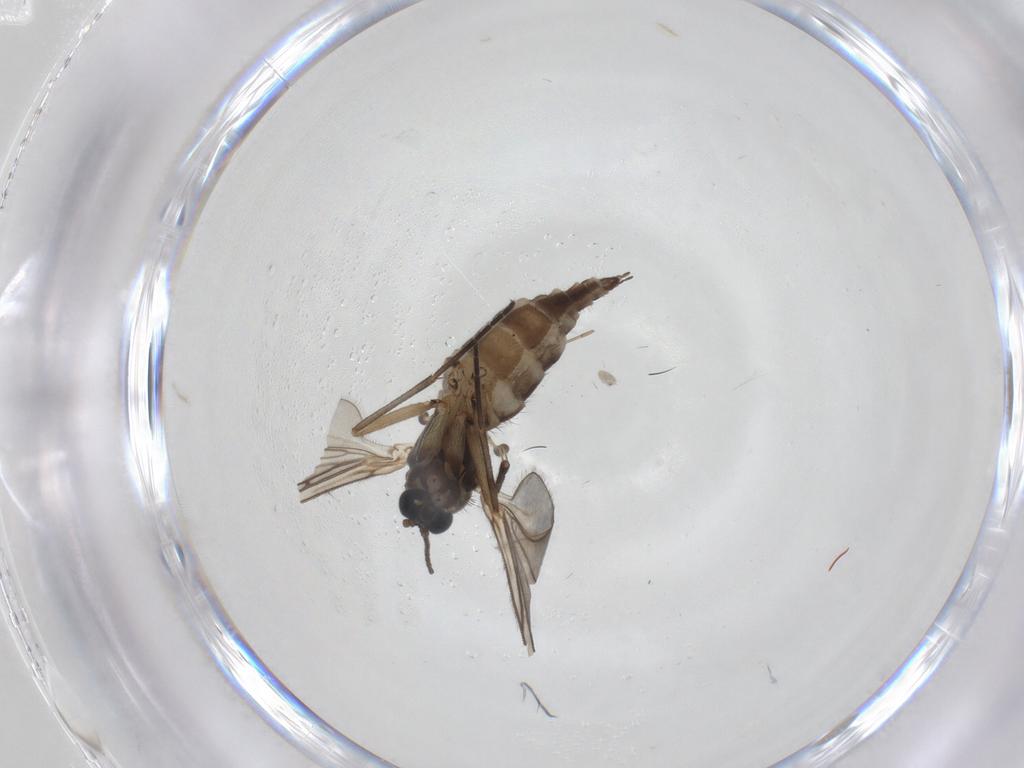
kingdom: Animalia
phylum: Arthropoda
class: Insecta
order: Diptera
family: Sciaridae
